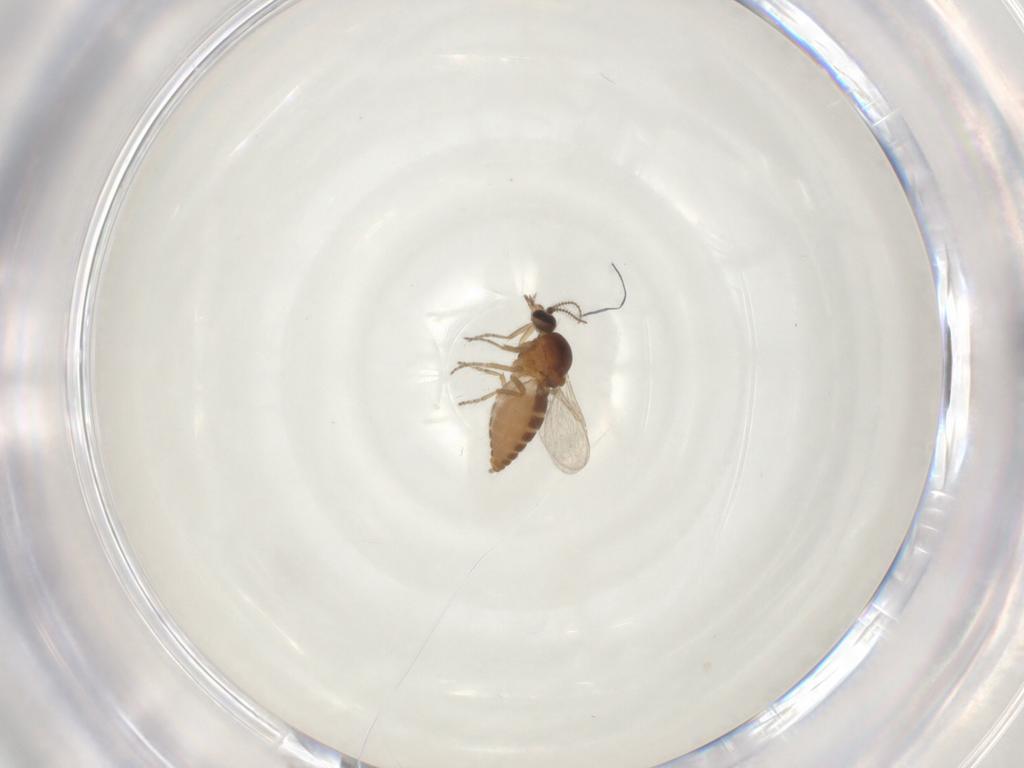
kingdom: Animalia
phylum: Arthropoda
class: Insecta
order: Diptera
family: Ceratopogonidae
